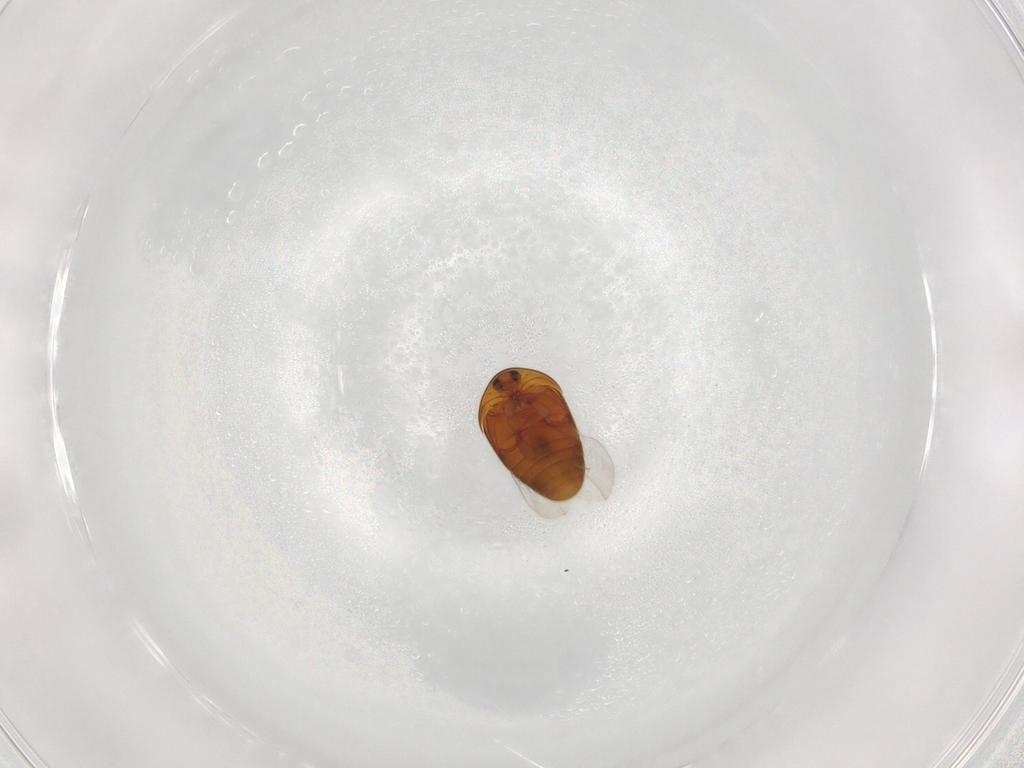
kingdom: Animalia
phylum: Arthropoda
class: Insecta
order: Coleoptera
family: Corylophidae
